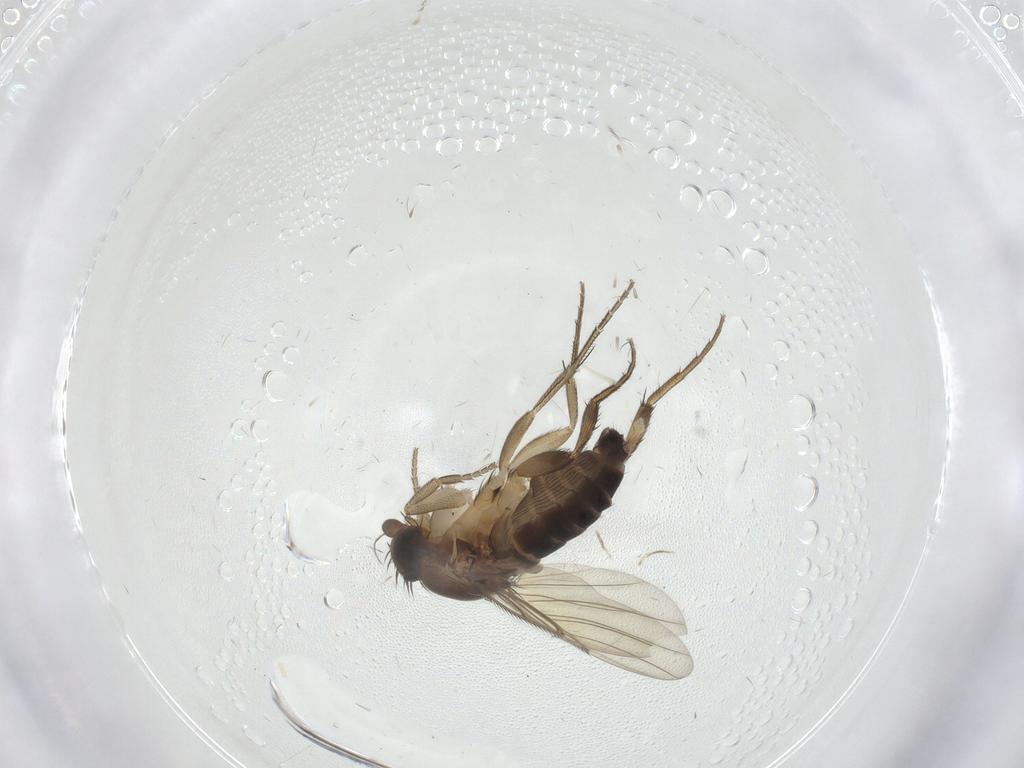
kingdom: Animalia
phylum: Arthropoda
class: Insecta
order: Diptera
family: Phoridae
